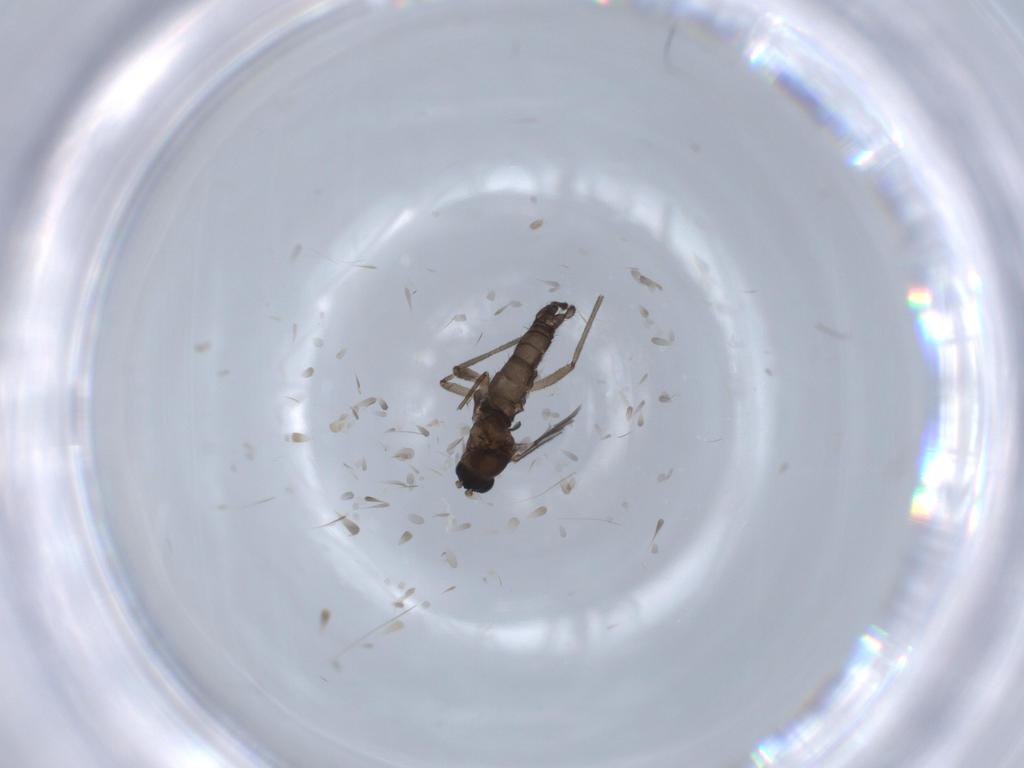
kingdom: Animalia
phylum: Arthropoda
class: Insecta
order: Diptera
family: Sciaridae
